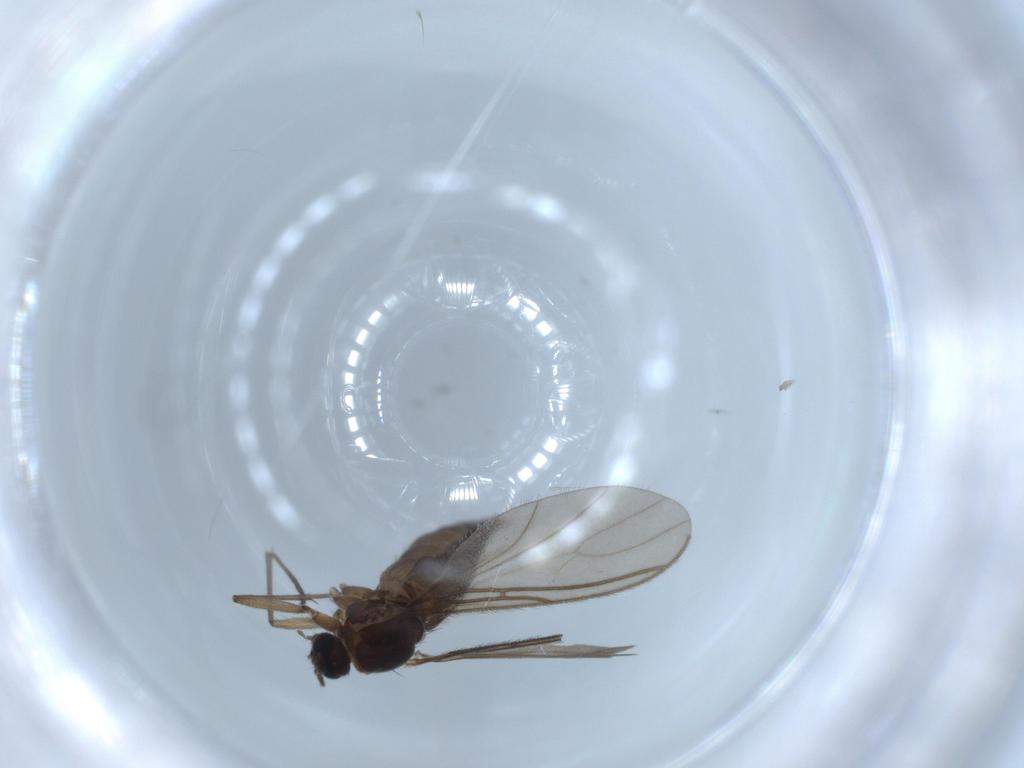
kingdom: Animalia
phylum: Arthropoda
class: Insecta
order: Diptera
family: Sciaridae
